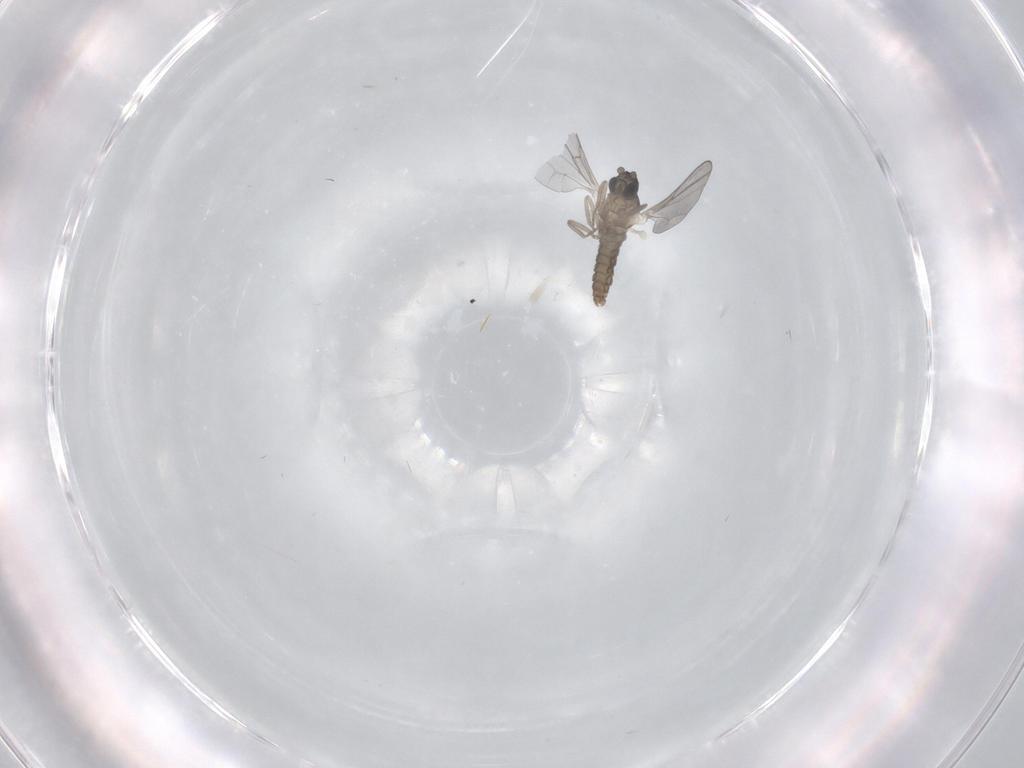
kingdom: Animalia
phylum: Arthropoda
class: Insecta
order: Diptera
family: Cecidomyiidae
